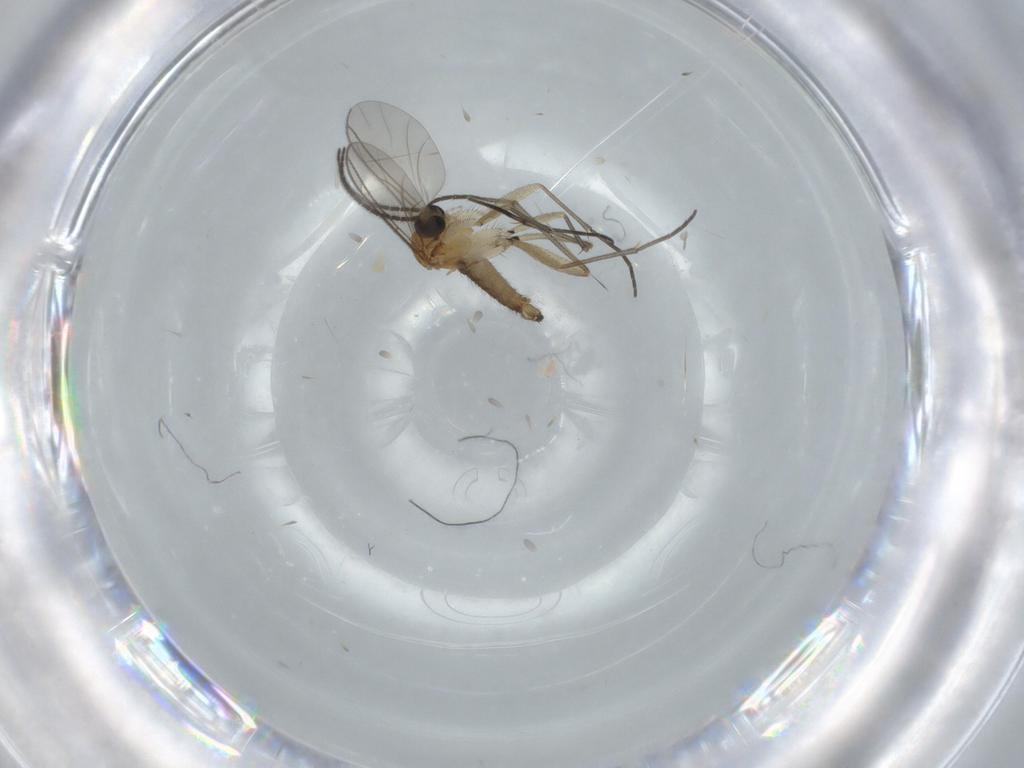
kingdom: Animalia
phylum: Arthropoda
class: Insecta
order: Diptera
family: Sciaridae
